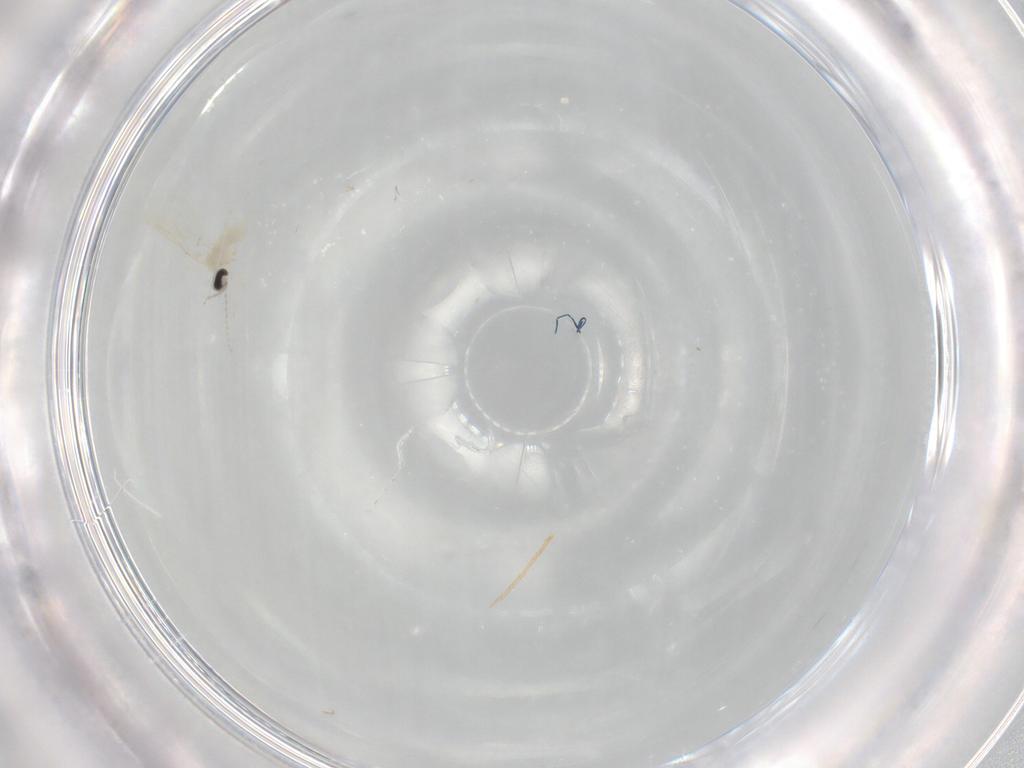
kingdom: Animalia
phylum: Arthropoda
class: Insecta
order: Diptera
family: Cecidomyiidae
